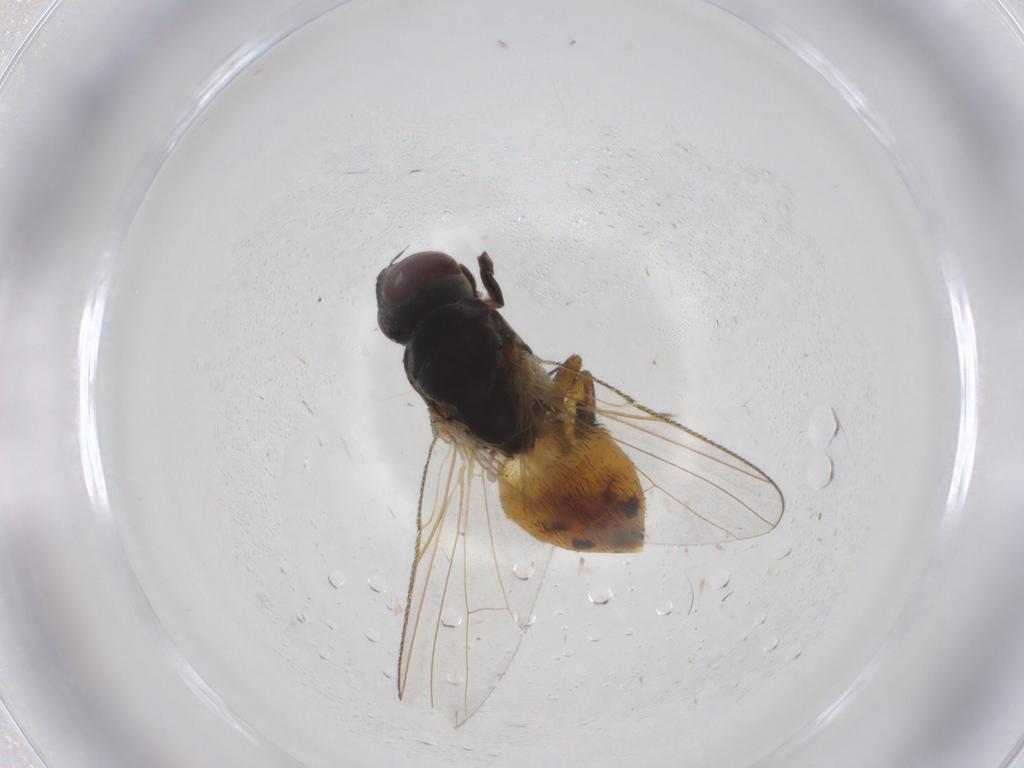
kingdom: Animalia
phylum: Arthropoda
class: Insecta
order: Diptera
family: Muscidae
